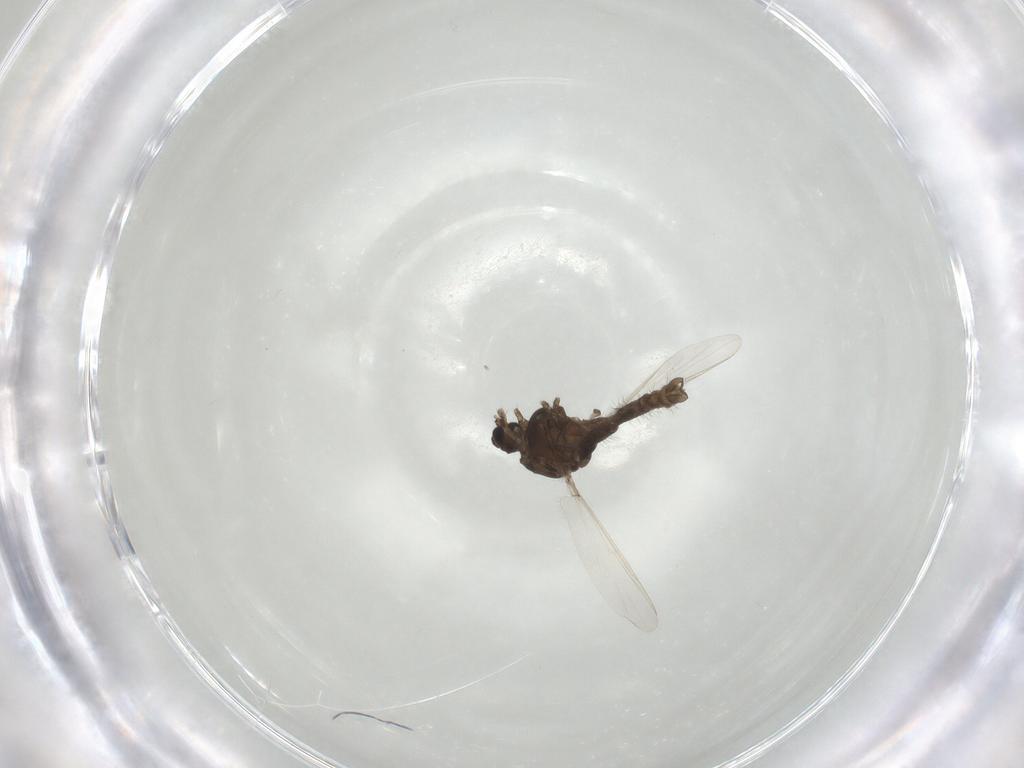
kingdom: Animalia
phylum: Arthropoda
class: Insecta
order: Diptera
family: Chironomidae
